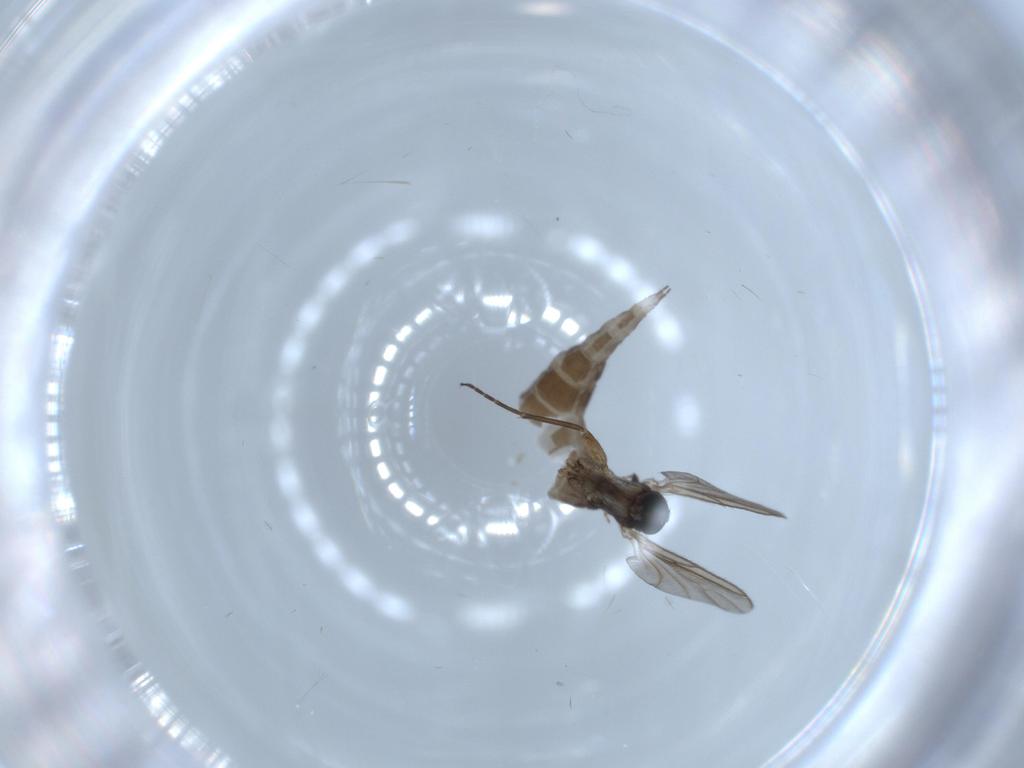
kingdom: Animalia
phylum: Arthropoda
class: Insecta
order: Diptera
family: Sciaridae
